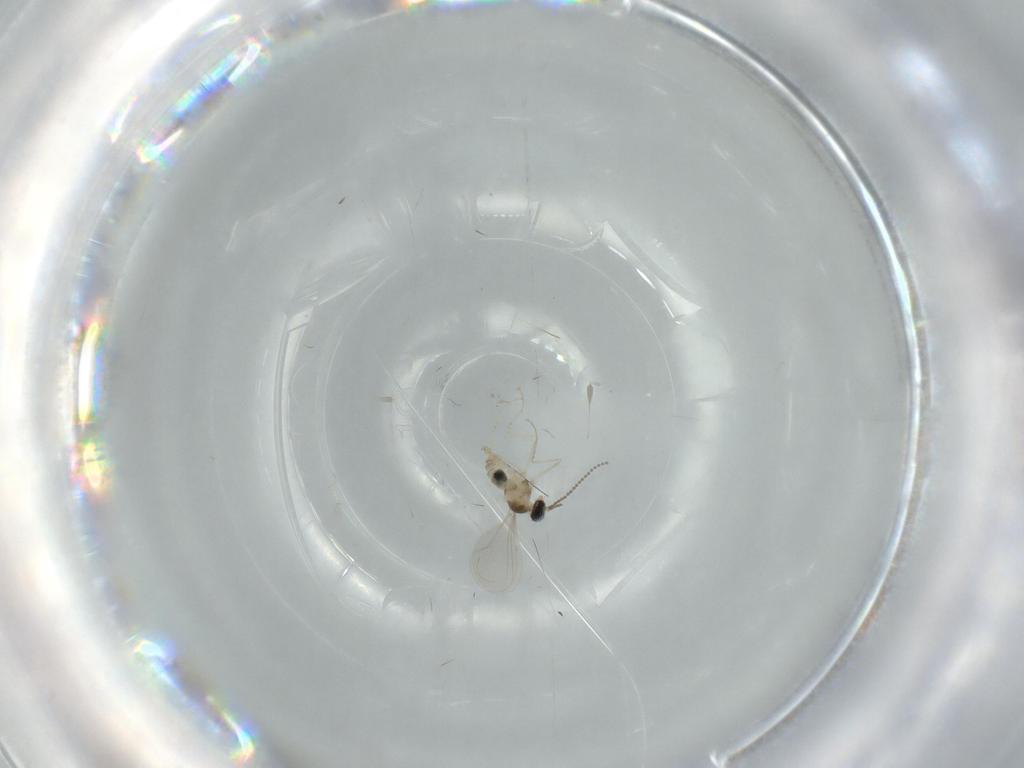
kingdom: Animalia
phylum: Arthropoda
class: Insecta
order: Diptera
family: Cecidomyiidae
